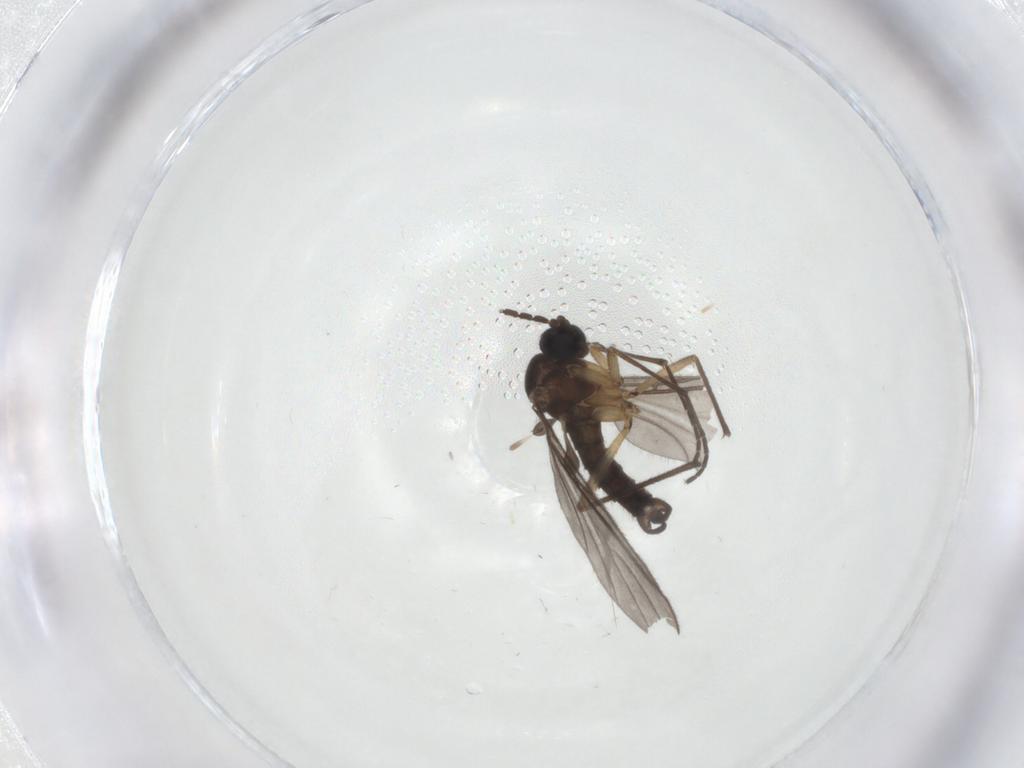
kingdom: Animalia
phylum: Arthropoda
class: Insecta
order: Diptera
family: Sciaridae
